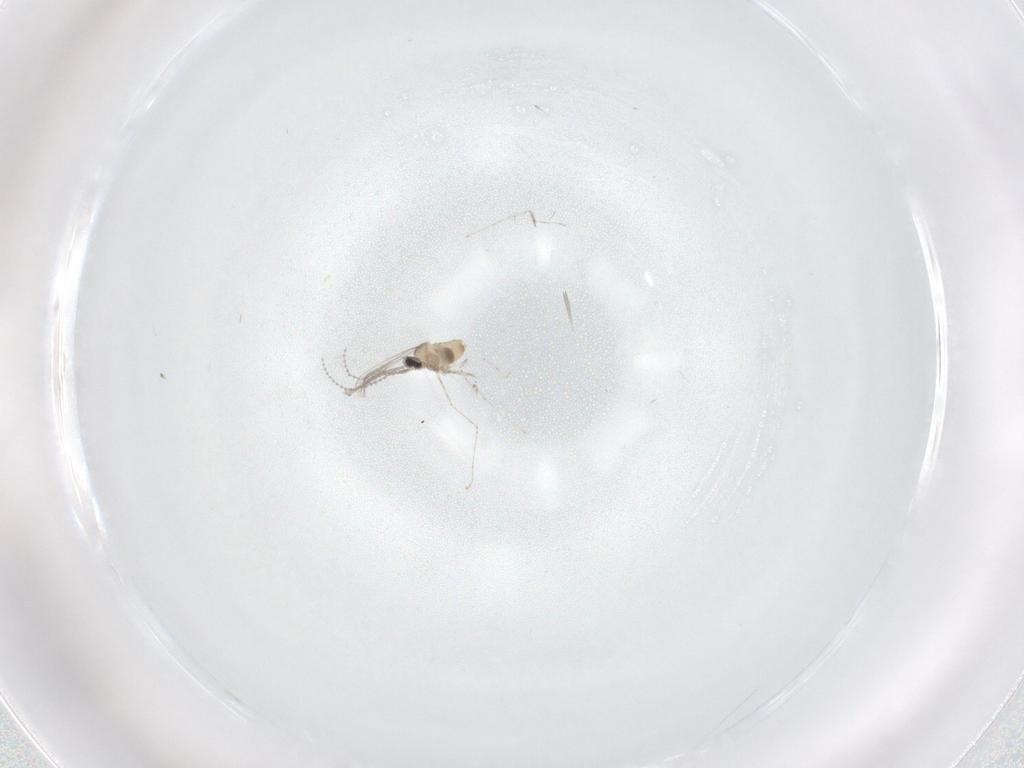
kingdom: Animalia
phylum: Arthropoda
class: Insecta
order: Diptera
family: Cecidomyiidae
